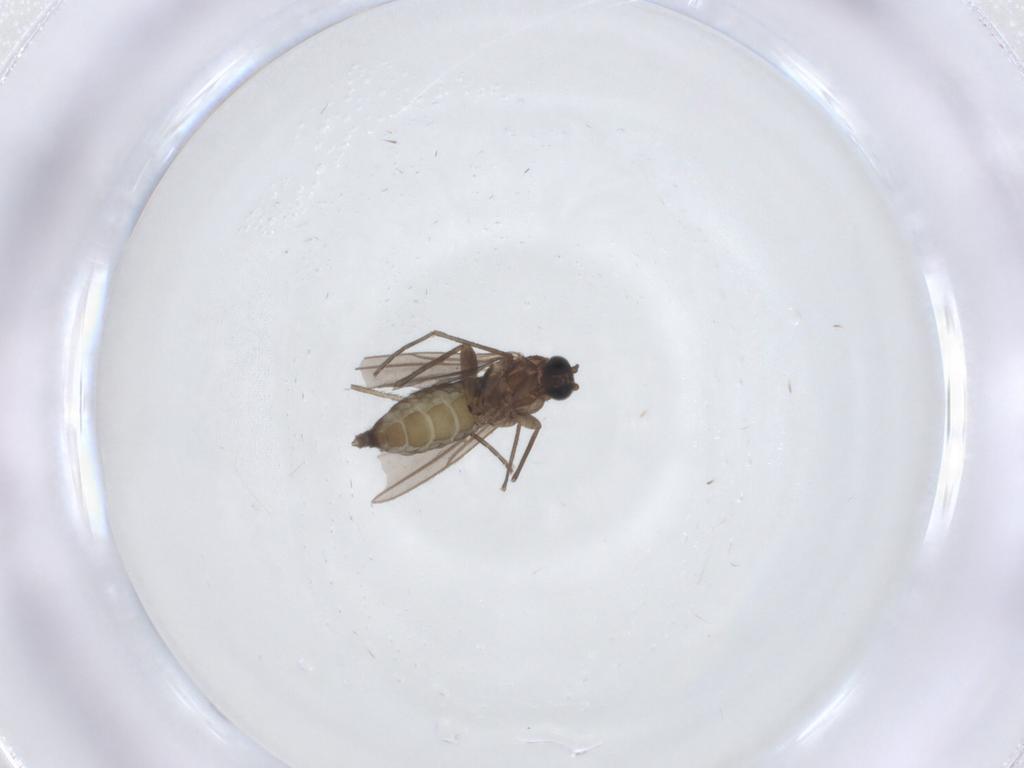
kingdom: Animalia
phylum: Arthropoda
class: Insecta
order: Diptera
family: Sciaridae
